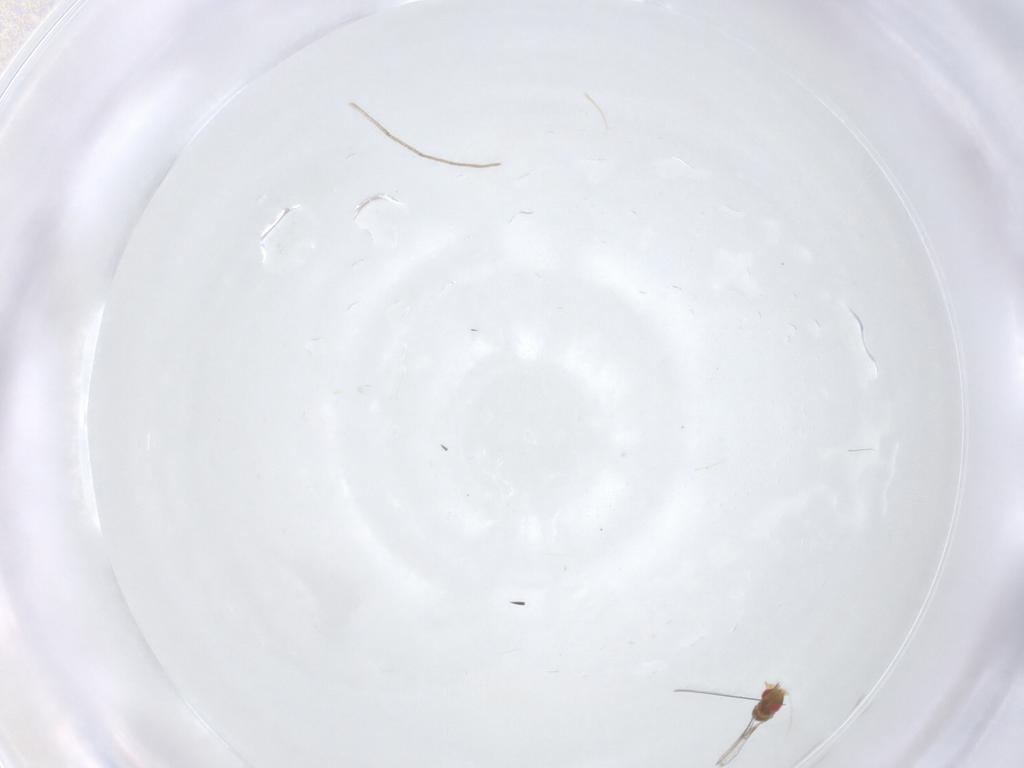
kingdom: Animalia
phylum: Arthropoda
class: Insecta
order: Hymenoptera
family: Trichogrammatidae
